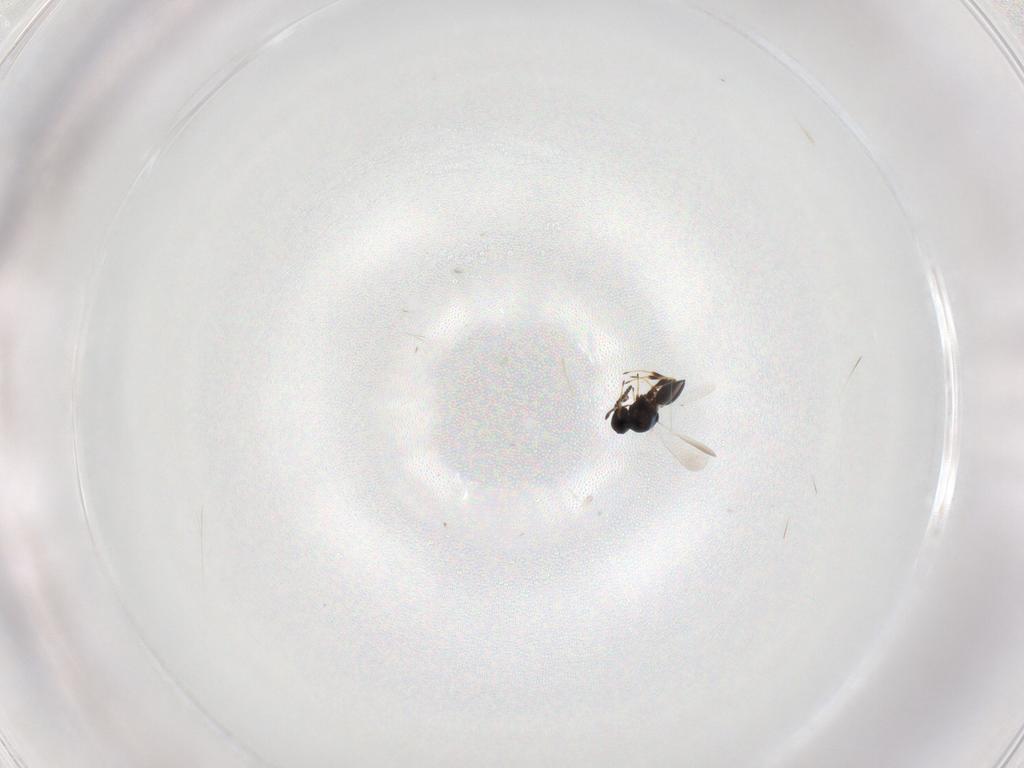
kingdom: Animalia
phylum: Arthropoda
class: Insecta
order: Hymenoptera
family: Platygastridae
